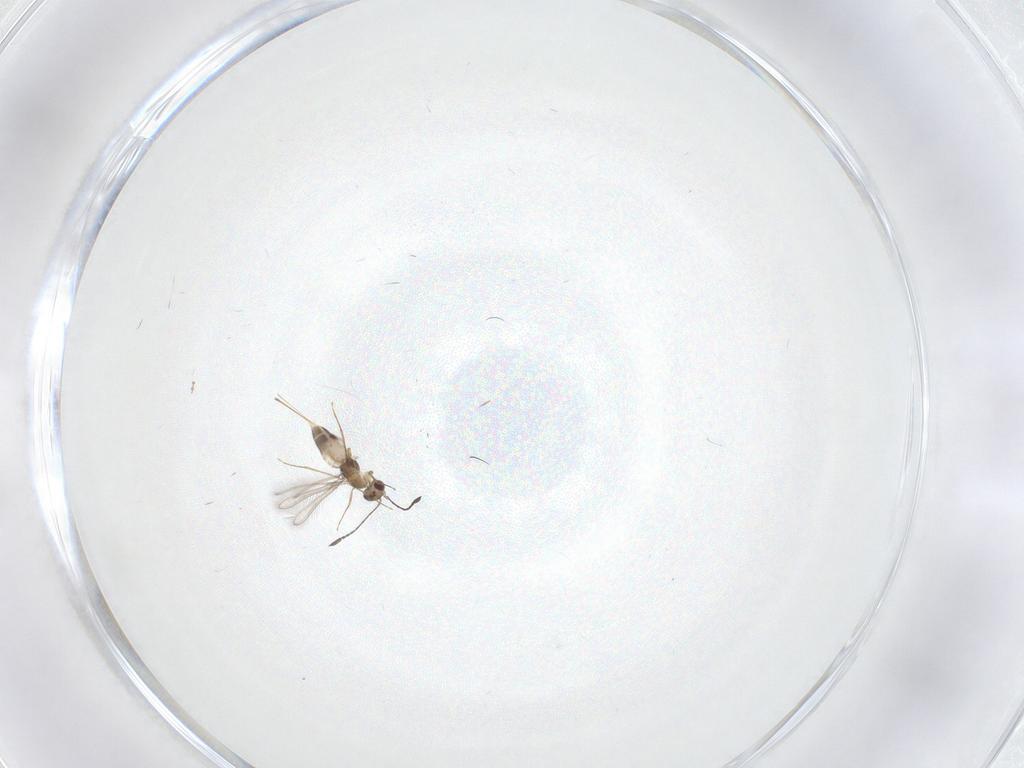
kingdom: Animalia
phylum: Arthropoda
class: Insecta
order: Hymenoptera
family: Mymaridae
